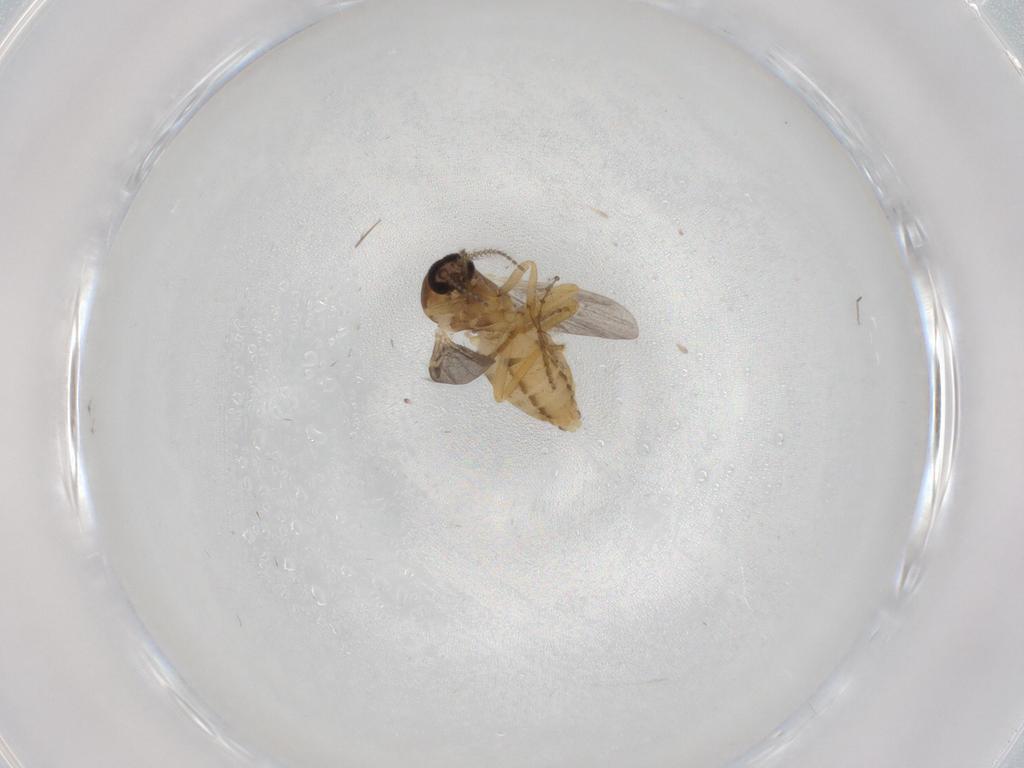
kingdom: Animalia
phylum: Arthropoda
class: Insecta
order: Diptera
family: Ceratopogonidae
